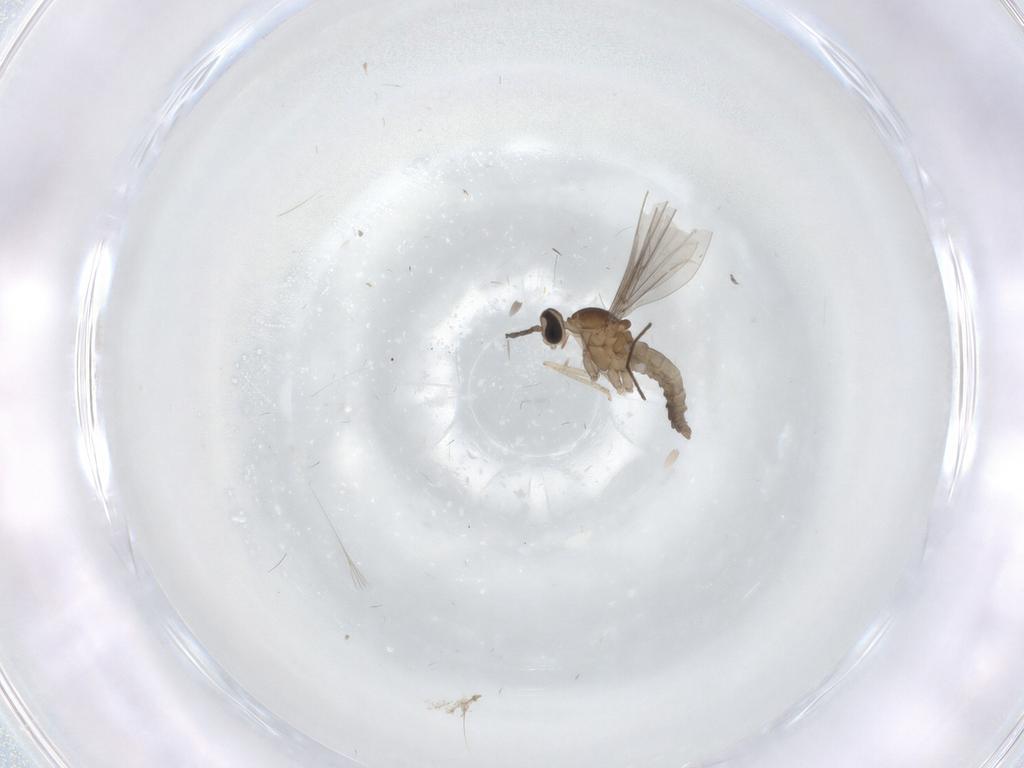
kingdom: Animalia
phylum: Arthropoda
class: Insecta
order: Diptera
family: Cecidomyiidae
